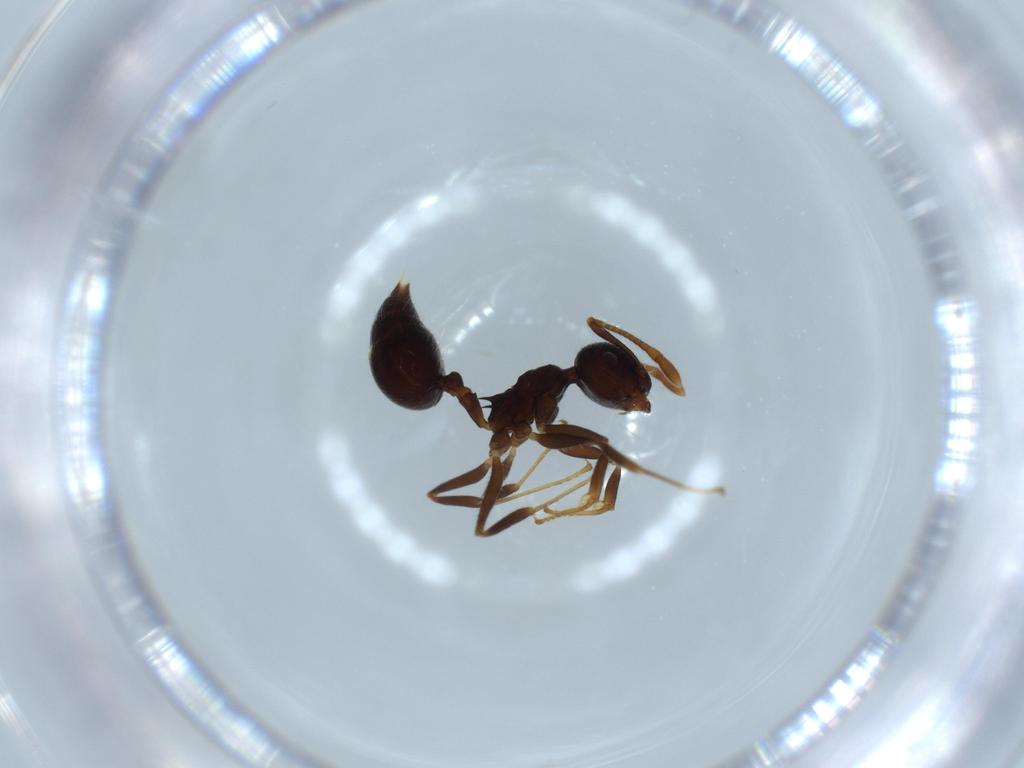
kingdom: Animalia
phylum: Arthropoda
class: Insecta
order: Hymenoptera
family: Formicidae
